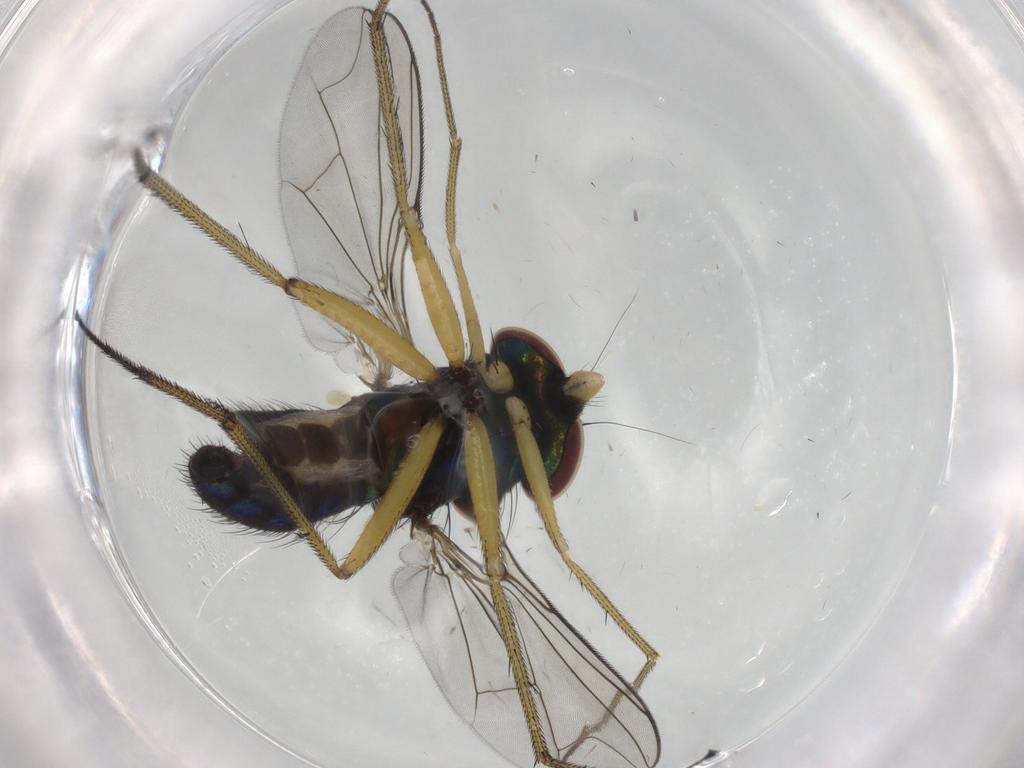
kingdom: Animalia
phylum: Arthropoda
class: Insecta
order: Diptera
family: Dolichopodidae
